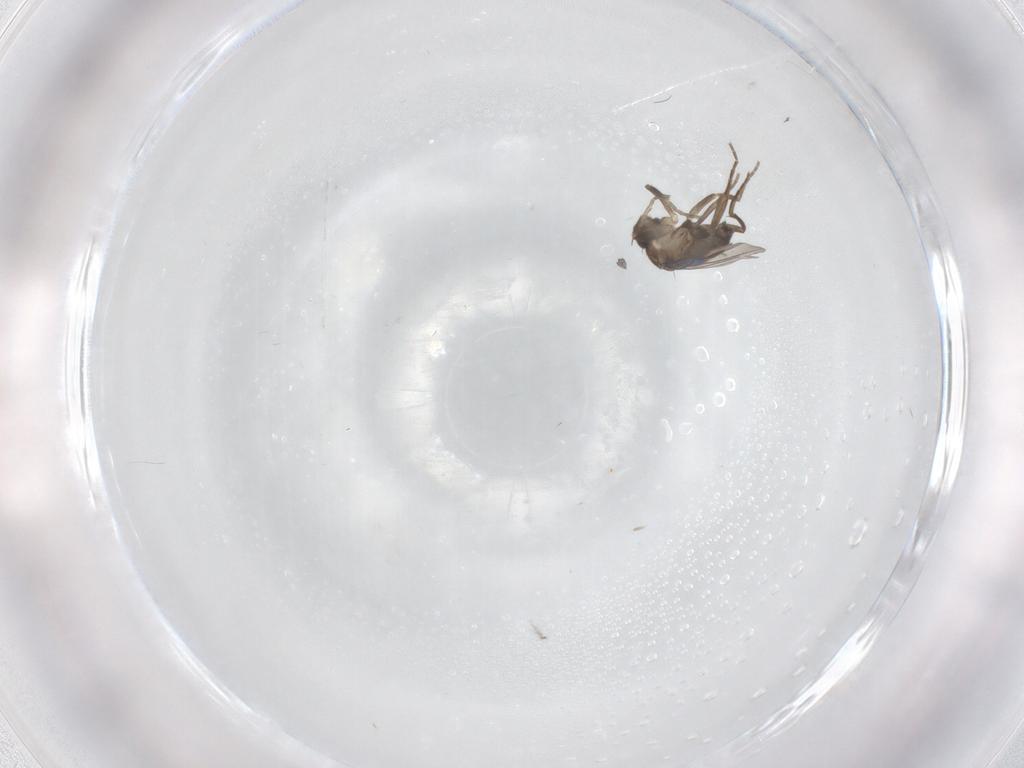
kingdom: Animalia
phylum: Arthropoda
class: Insecta
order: Diptera
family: Phoridae
